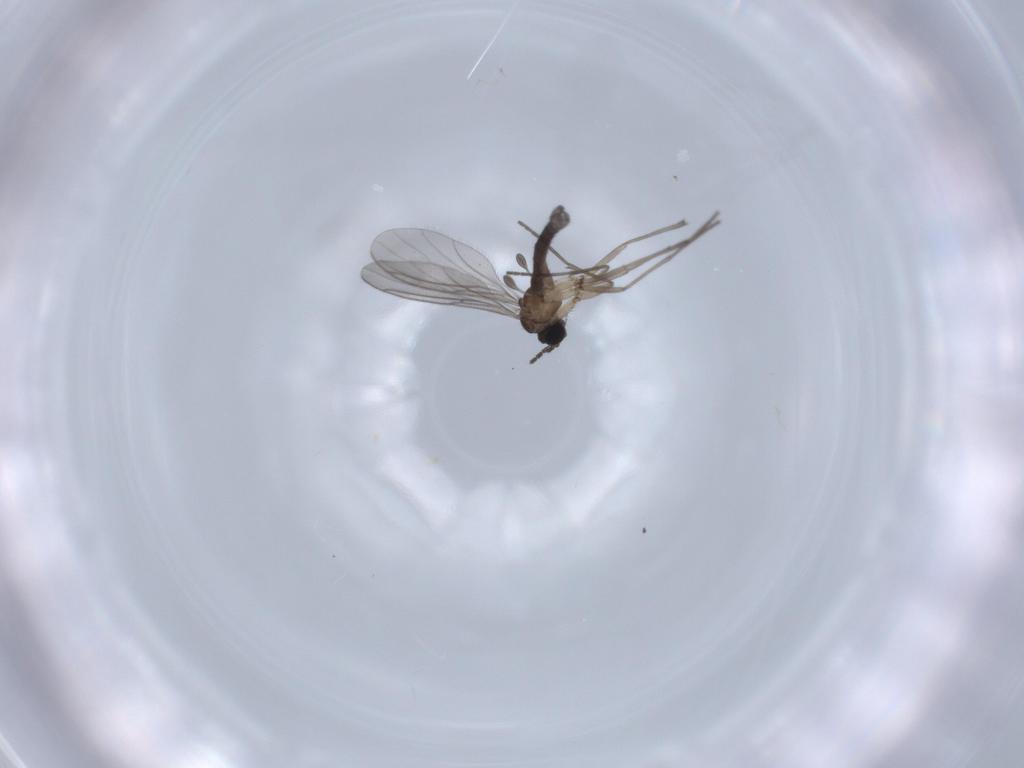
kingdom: Animalia
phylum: Arthropoda
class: Insecta
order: Diptera
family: Sciaridae
